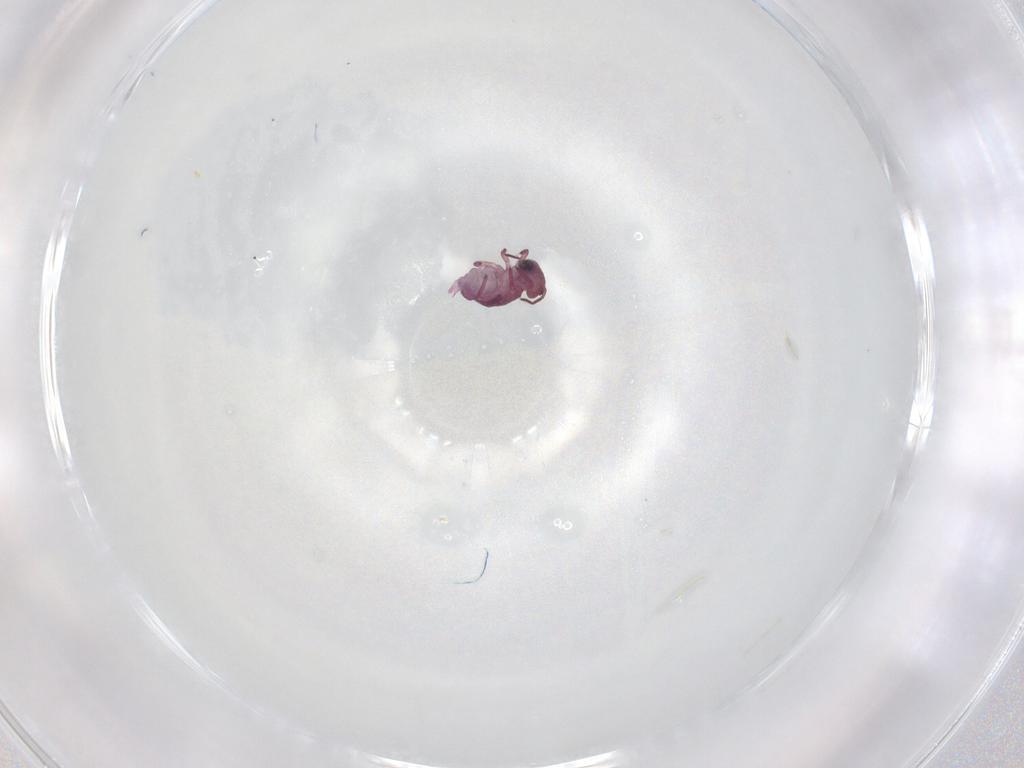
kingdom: Animalia
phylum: Arthropoda
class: Collembola
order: Symphypleona
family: Sminthurididae
